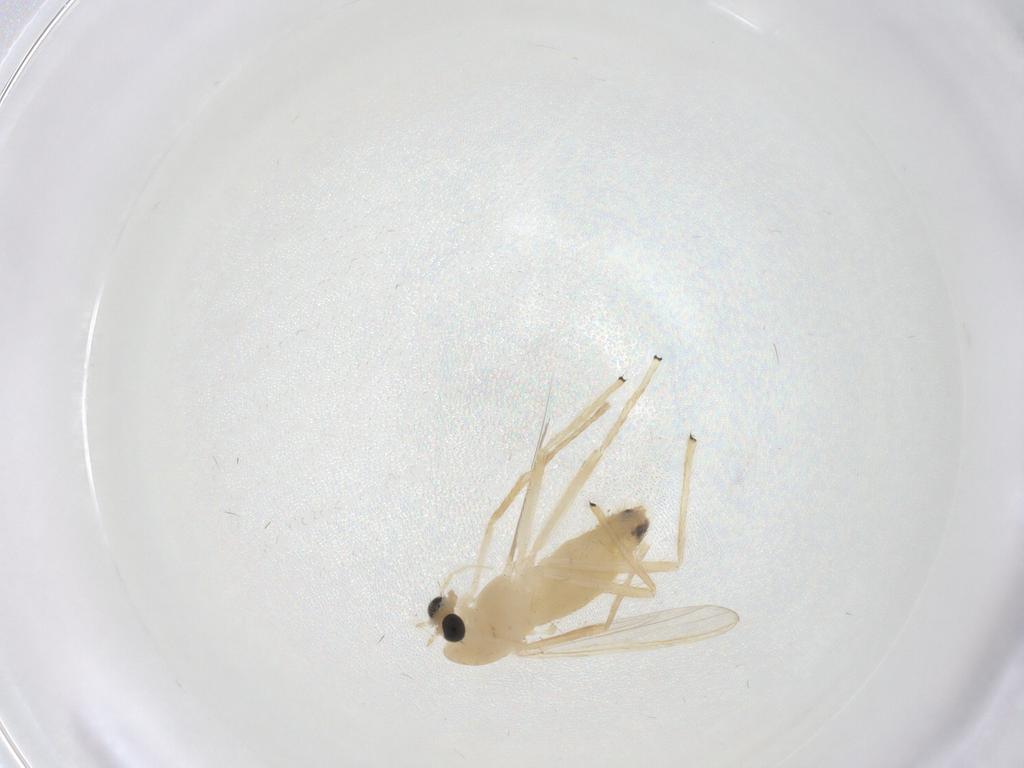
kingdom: Animalia
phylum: Arthropoda
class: Insecta
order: Diptera
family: Chironomidae
